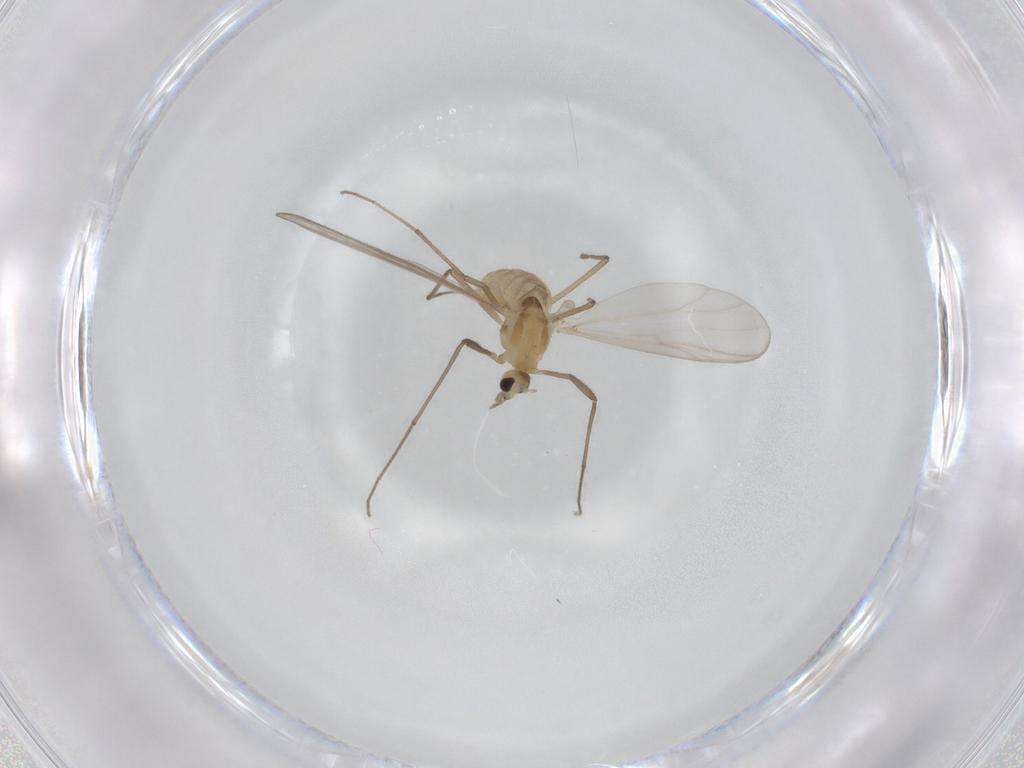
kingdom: Animalia
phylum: Arthropoda
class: Insecta
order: Diptera
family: Chironomidae
